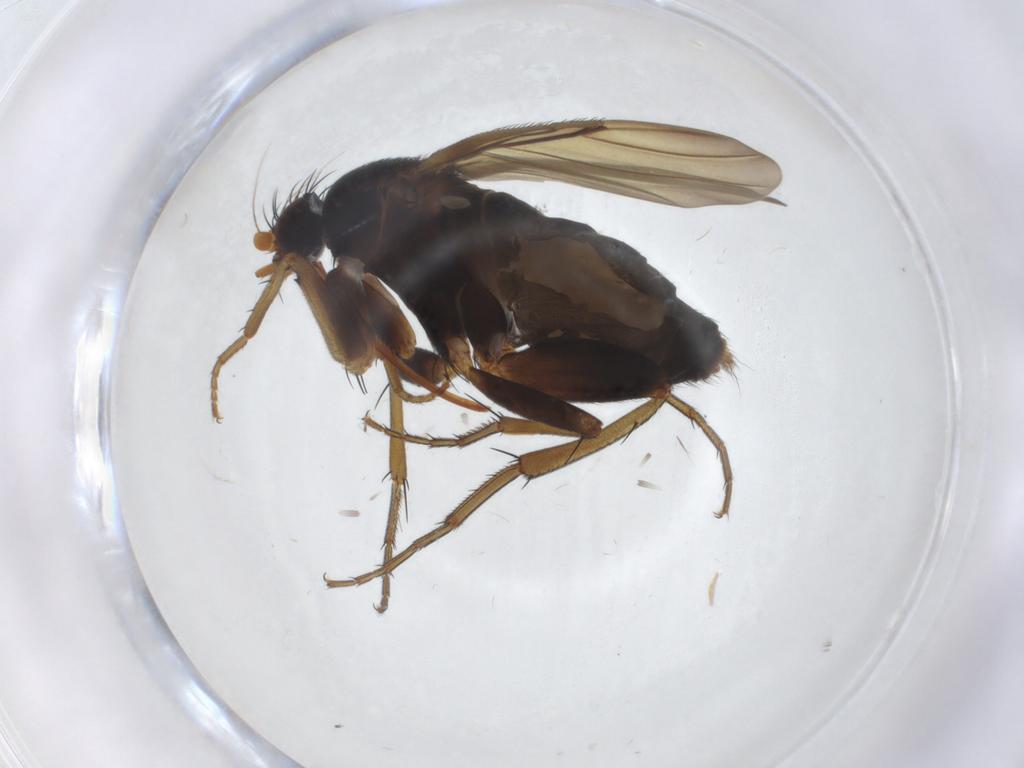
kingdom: Animalia
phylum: Arthropoda
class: Insecta
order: Diptera
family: Phoridae
